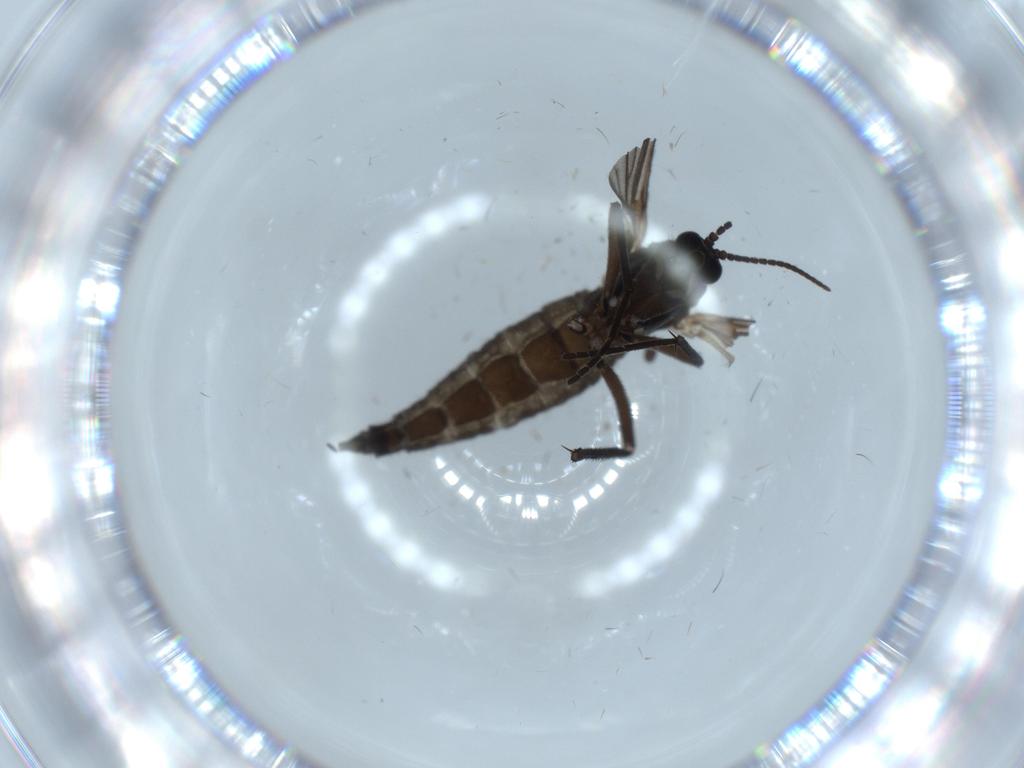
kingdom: Animalia
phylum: Arthropoda
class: Insecta
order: Diptera
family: Sciaridae
